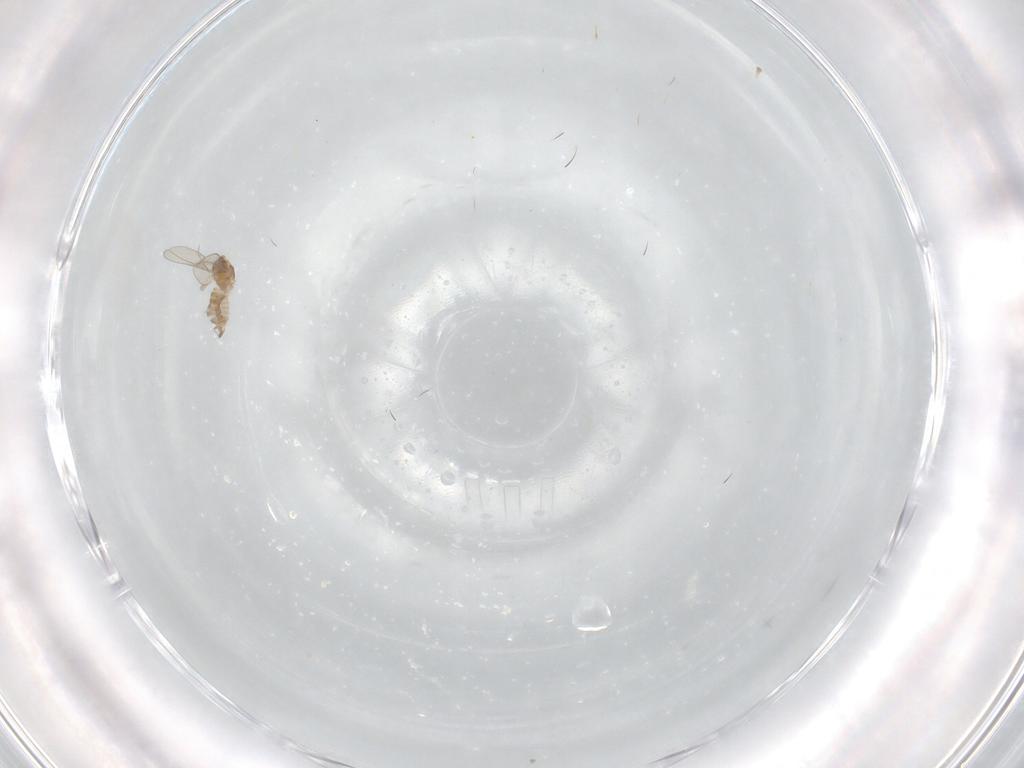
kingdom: Animalia
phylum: Arthropoda
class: Insecta
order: Diptera
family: Cecidomyiidae
